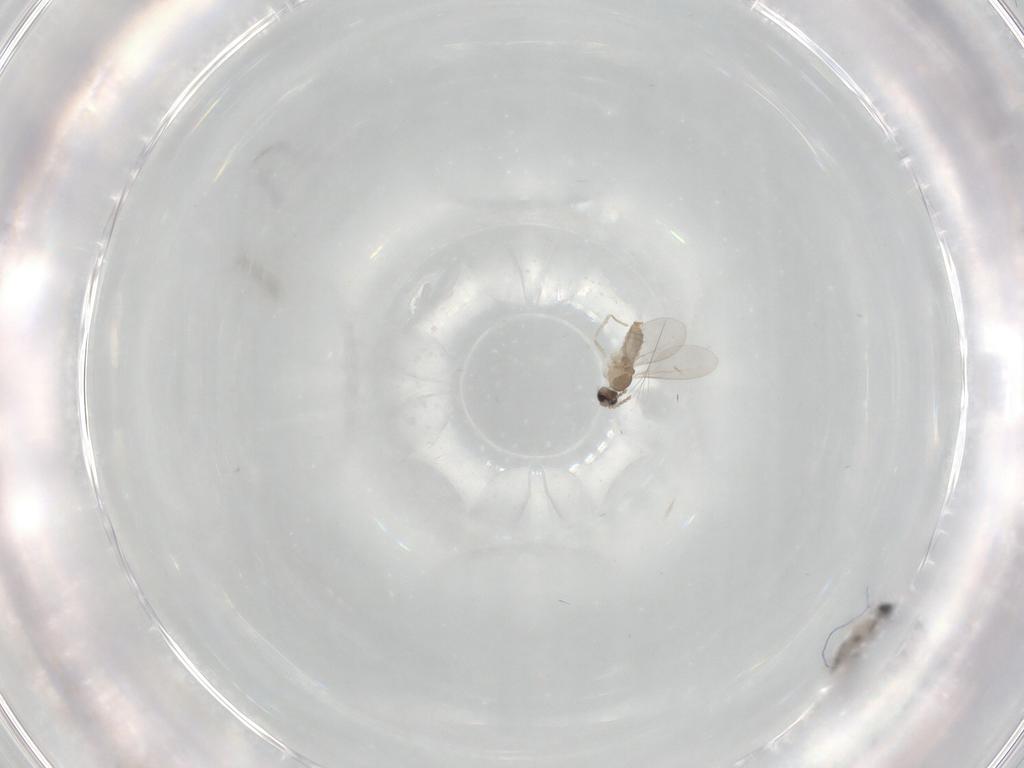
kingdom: Animalia
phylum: Arthropoda
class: Insecta
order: Diptera
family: Cecidomyiidae
